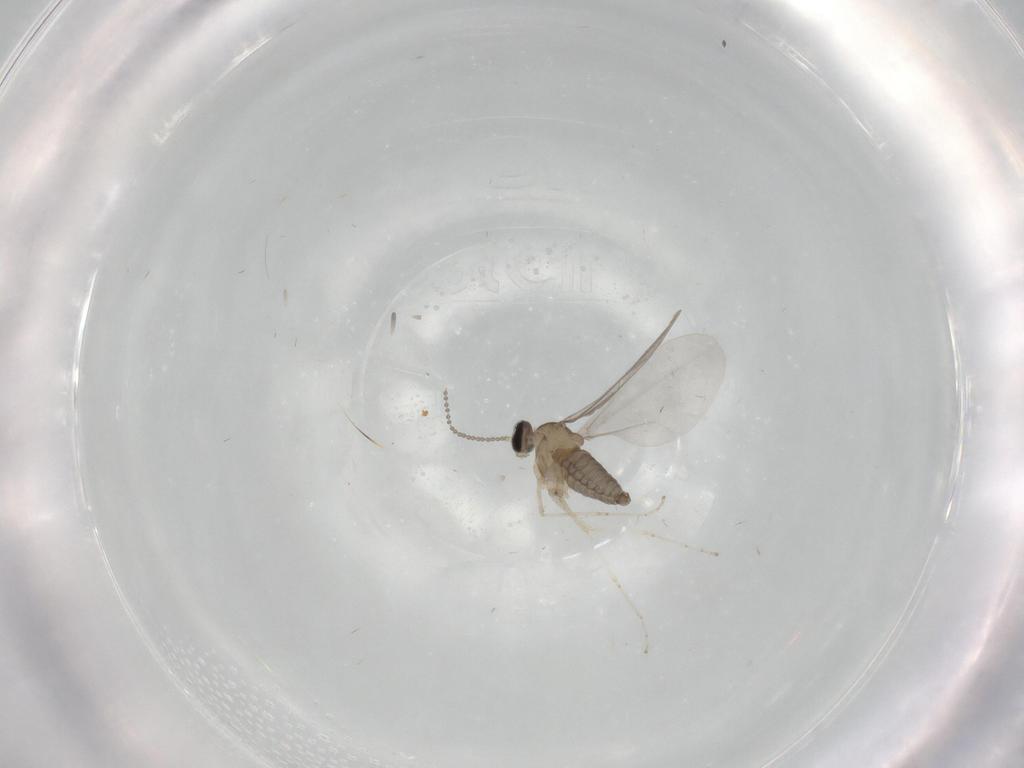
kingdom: Animalia
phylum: Arthropoda
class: Insecta
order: Diptera
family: Cecidomyiidae
